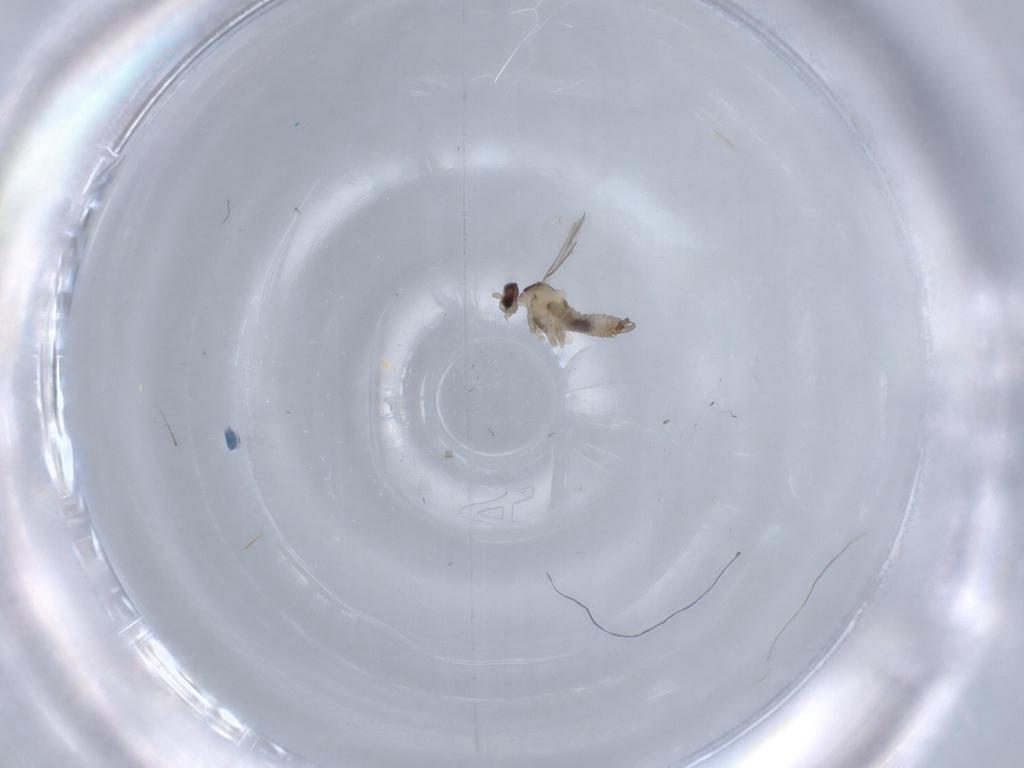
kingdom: Animalia
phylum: Arthropoda
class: Insecta
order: Diptera
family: Cecidomyiidae
